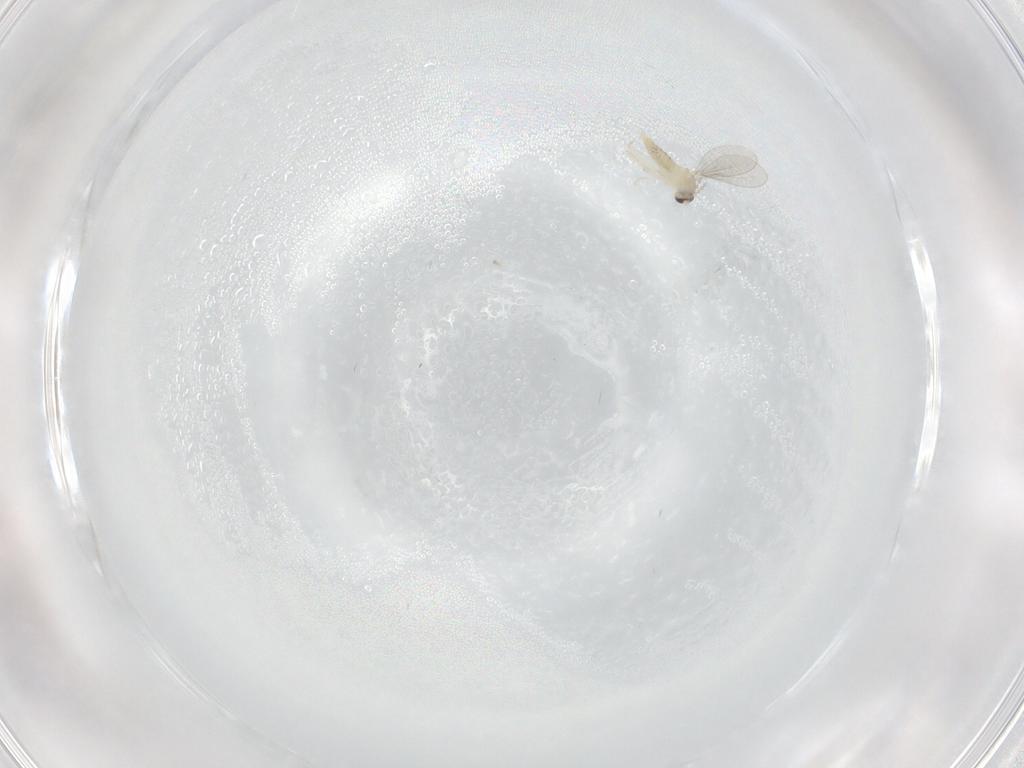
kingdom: Animalia
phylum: Arthropoda
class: Insecta
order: Diptera
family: Cecidomyiidae
